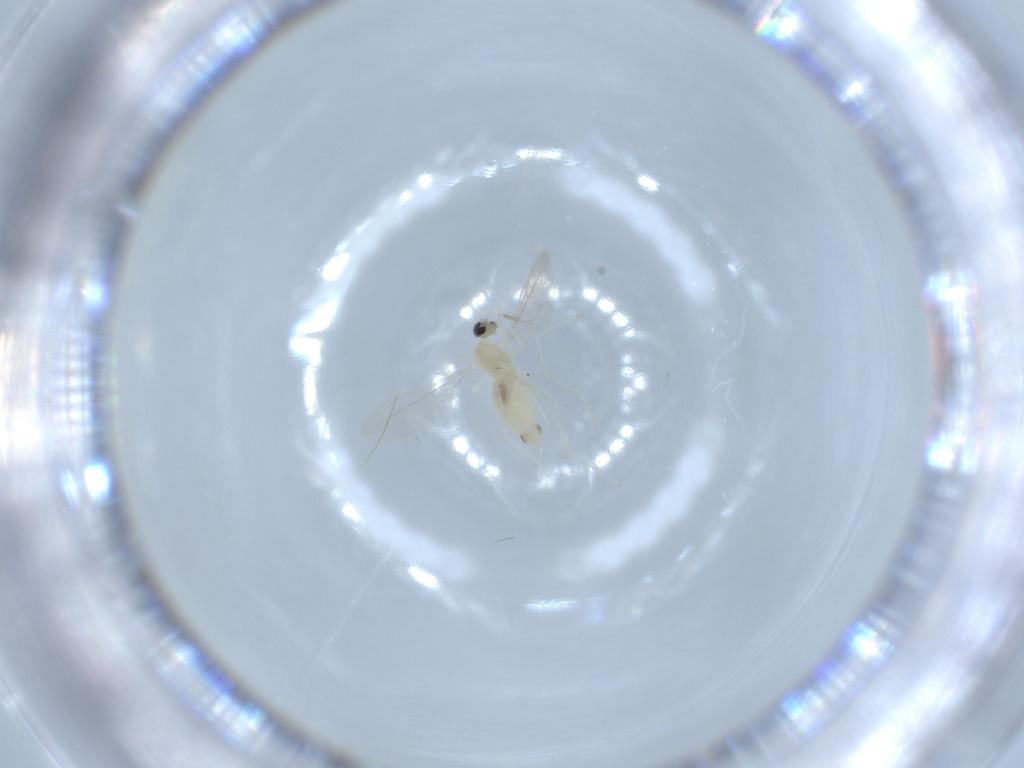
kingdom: Animalia
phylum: Arthropoda
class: Insecta
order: Diptera
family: Cecidomyiidae
